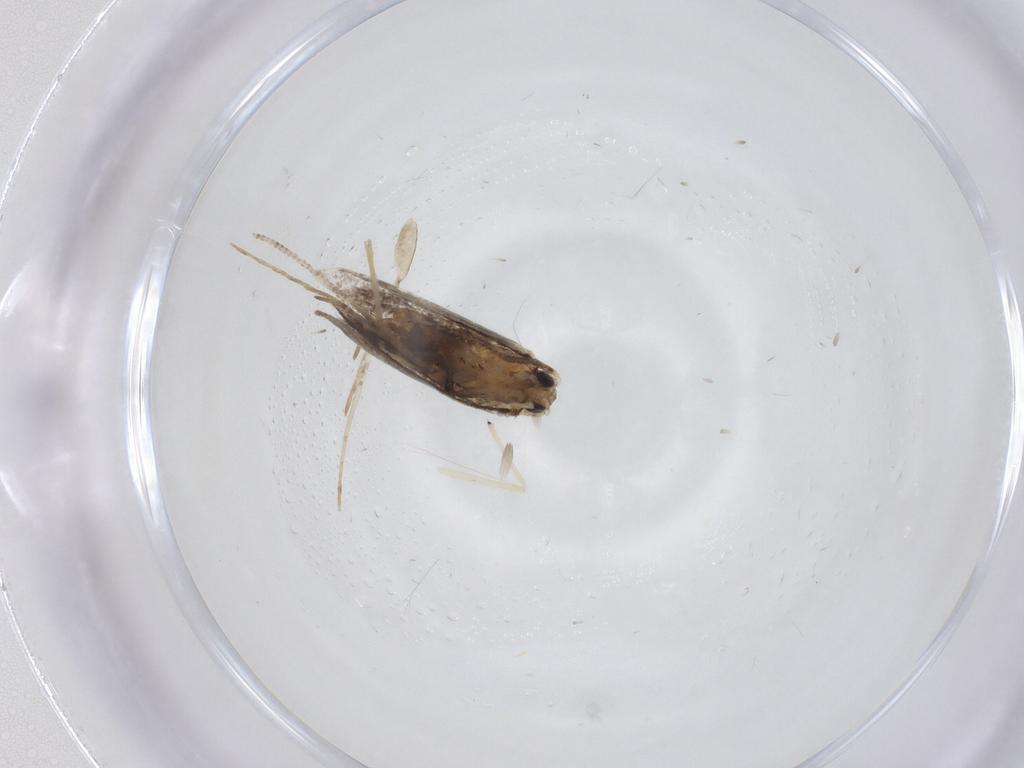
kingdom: Animalia
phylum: Arthropoda
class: Insecta
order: Lepidoptera
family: Dryadaulidae
